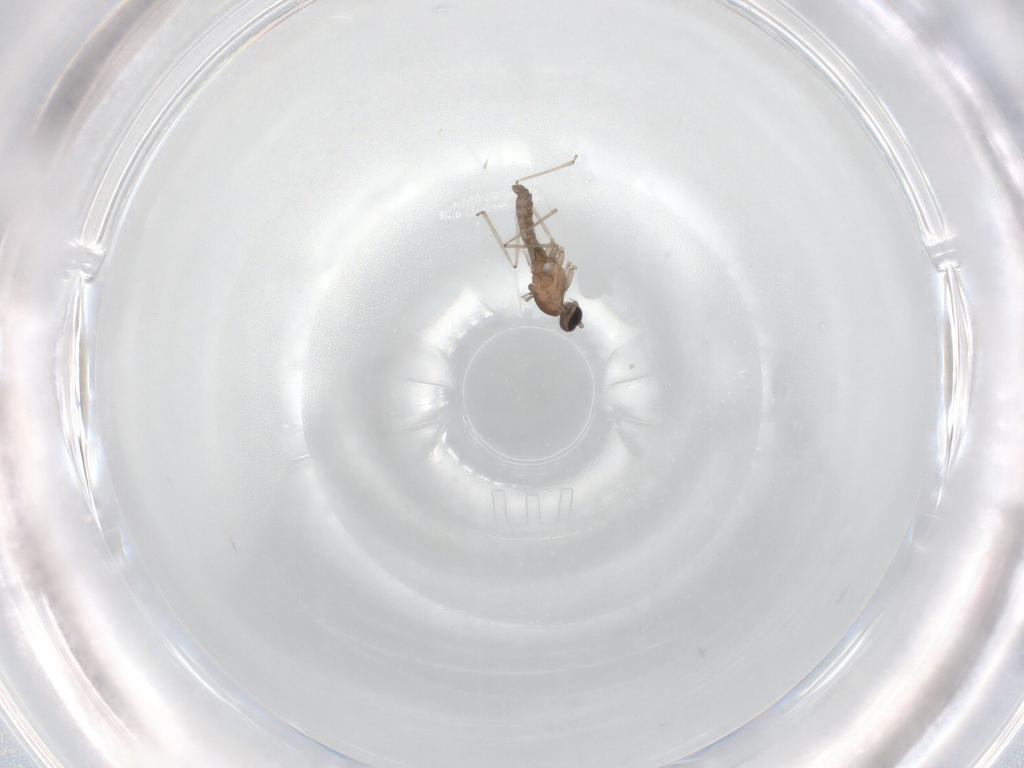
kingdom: Animalia
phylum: Arthropoda
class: Insecta
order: Diptera
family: Cecidomyiidae
